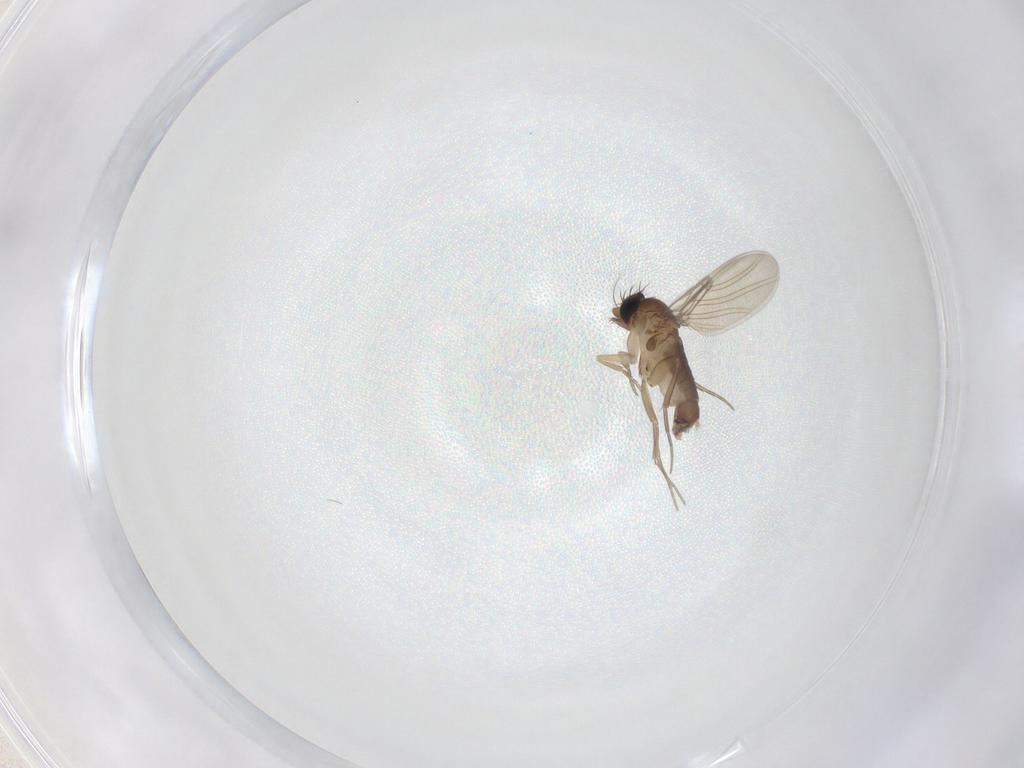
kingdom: Animalia
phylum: Arthropoda
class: Insecta
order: Diptera
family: Phoridae
